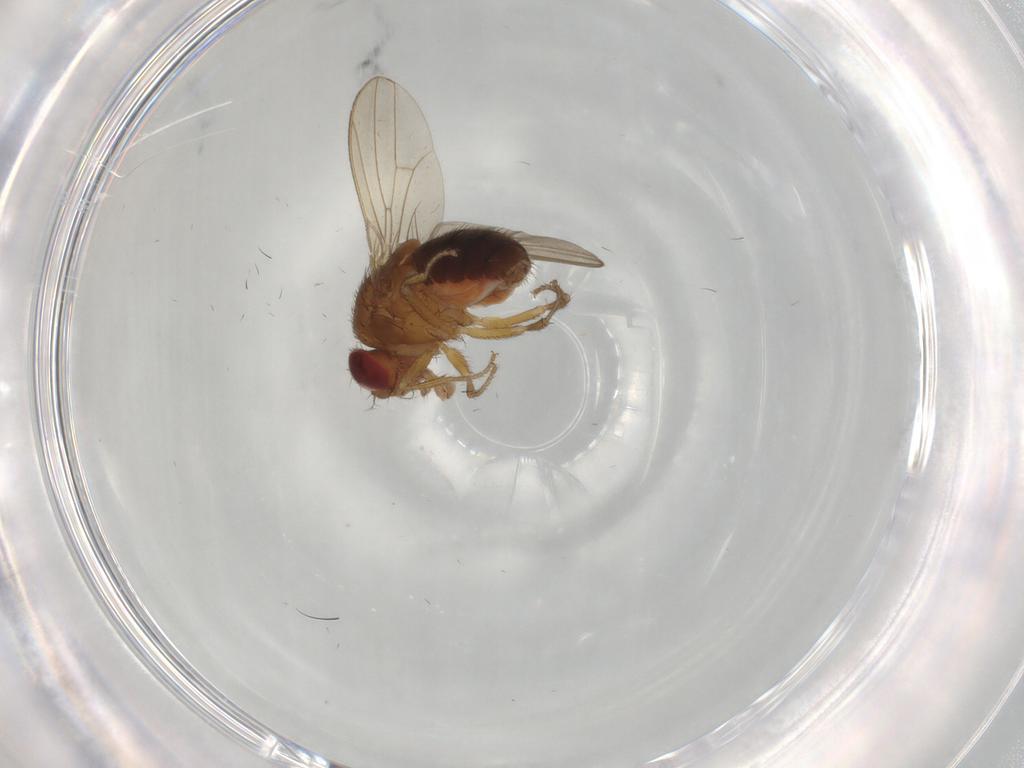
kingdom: Animalia
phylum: Arthropoda
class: Insecta
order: Diptera
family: Drosophilidae
